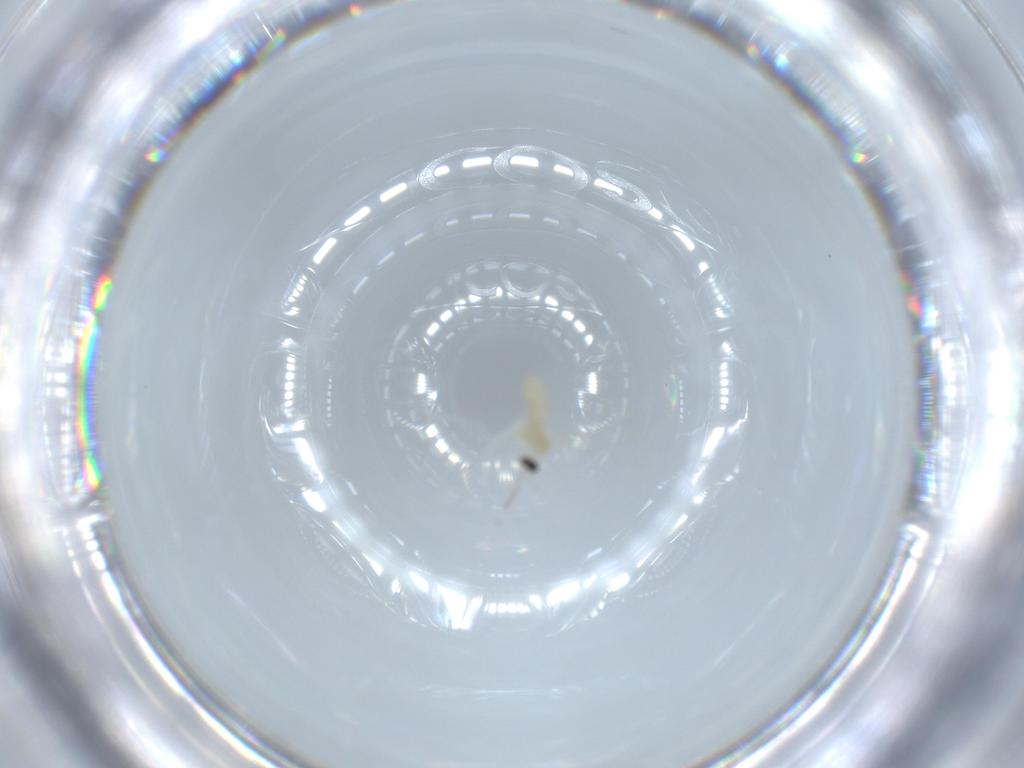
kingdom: Animalia
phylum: Arthropoda
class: Insecta
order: Diptera
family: Cecidomyiidae
